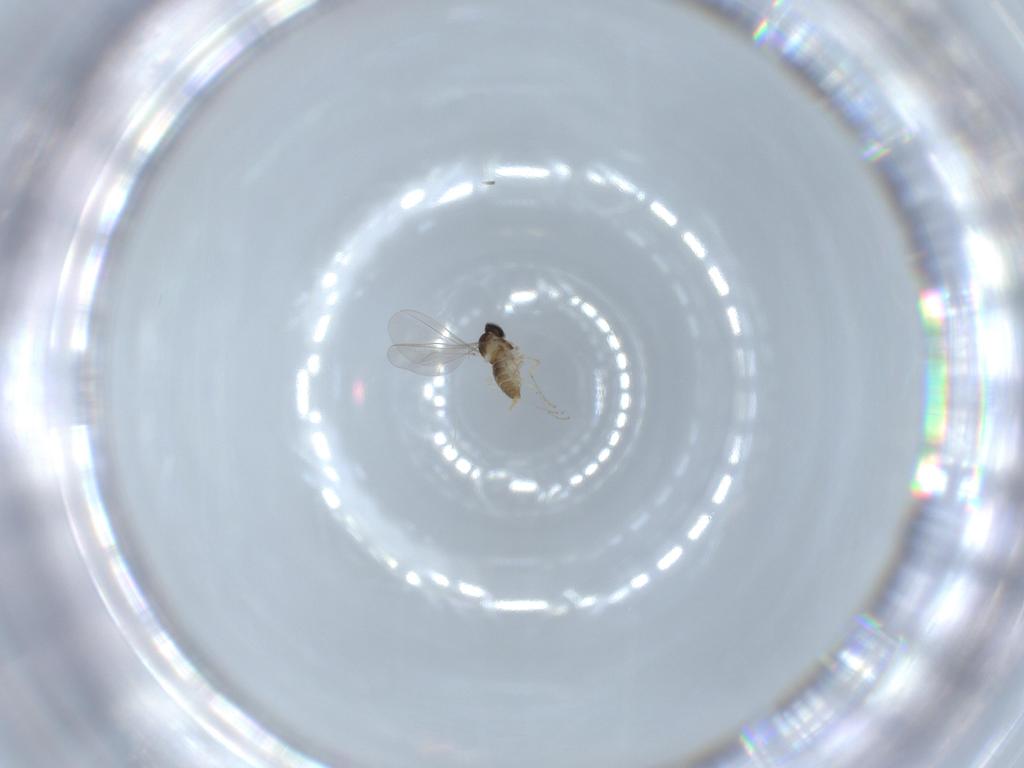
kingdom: Animalia
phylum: Arthropoda
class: Insecta
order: Diptera
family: Cecidomyiidae
